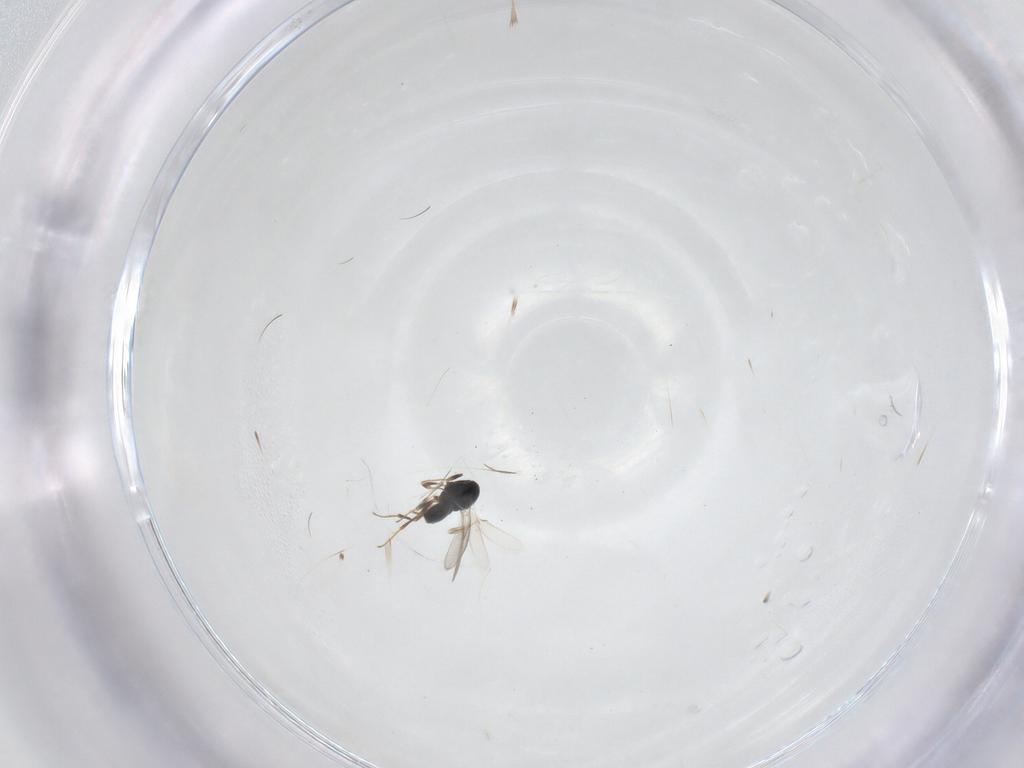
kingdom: Animalia
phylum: Arthropoda
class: Insecta
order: Hymenoptera
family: Scelionidae
